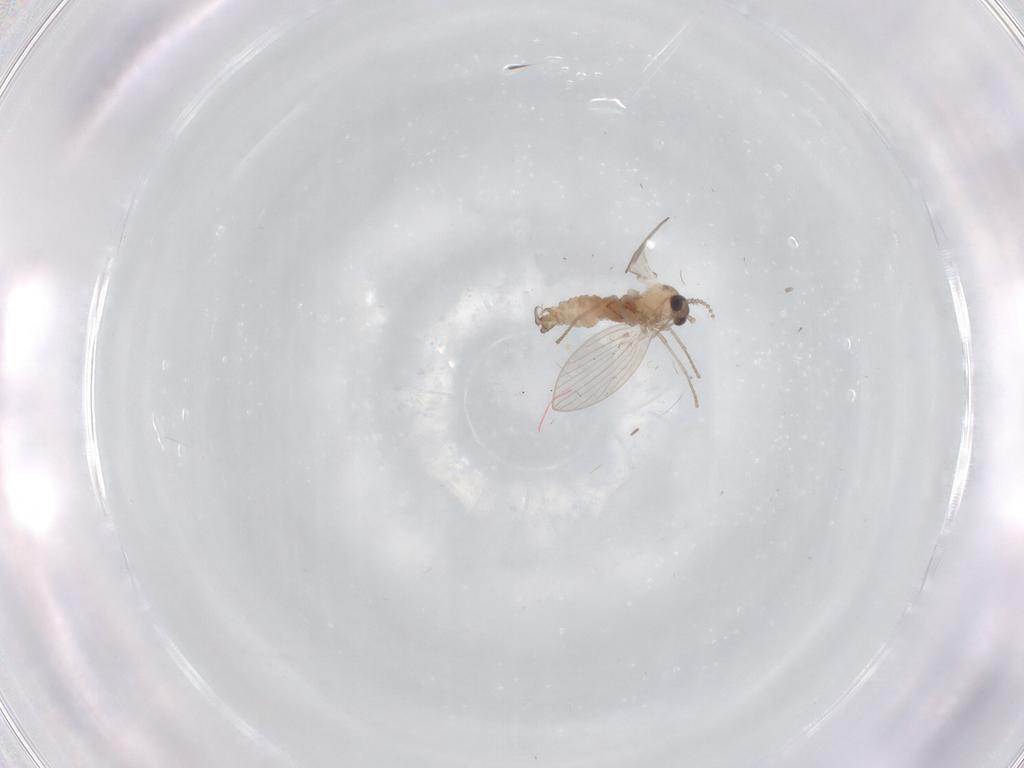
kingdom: Animalia
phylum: Arthropoda
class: Insecta
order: Diptera
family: Psychodidae
